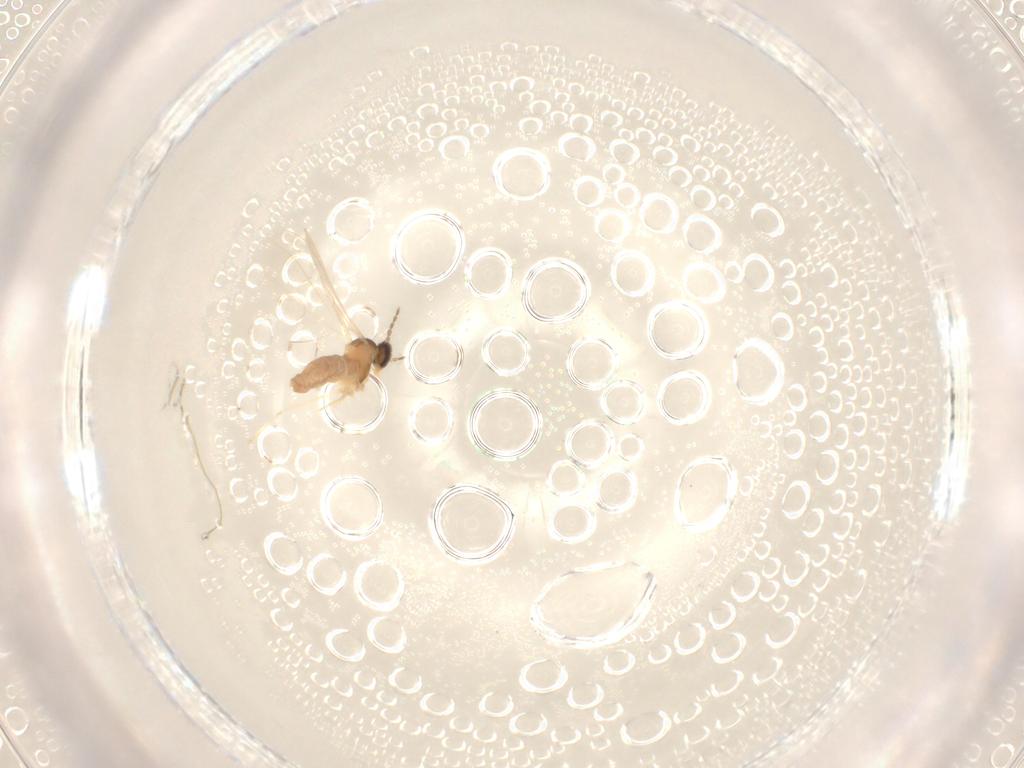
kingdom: Animalia
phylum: Arthropoda
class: Insecta
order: Diptera
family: Cecidomyiidae
